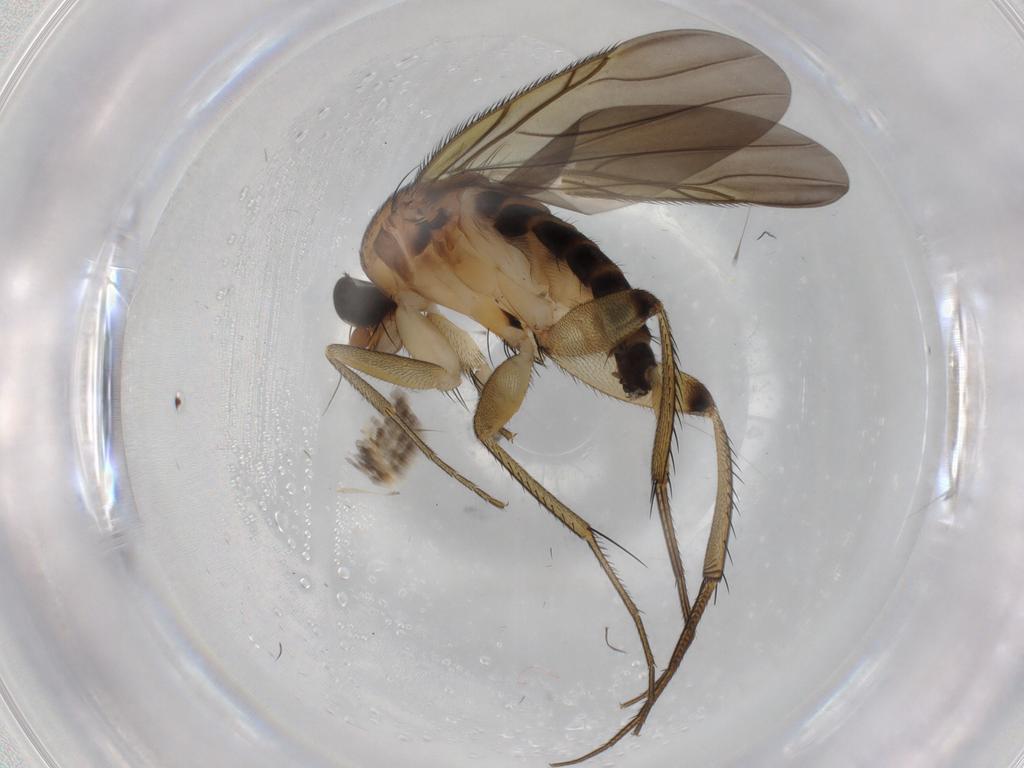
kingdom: Animalia
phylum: Arthropoda
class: Insecta
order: Diptera
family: Phoridae
